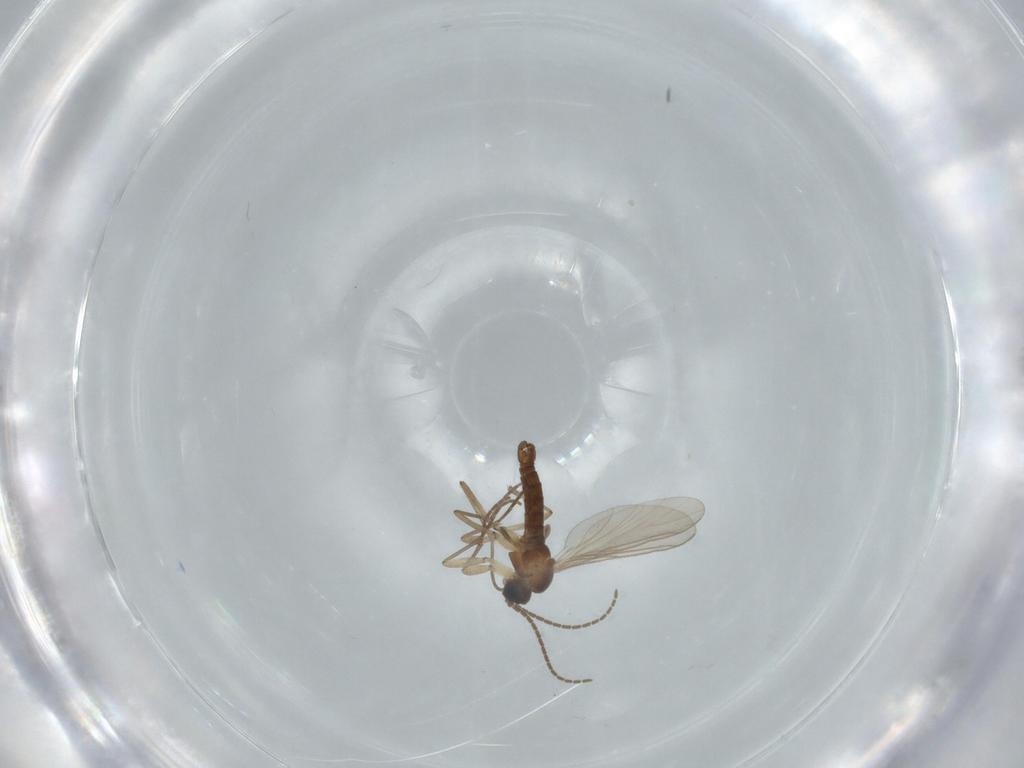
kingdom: Animalia
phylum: Arthropoda
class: Insecta
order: Diptera
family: Sciaridae
